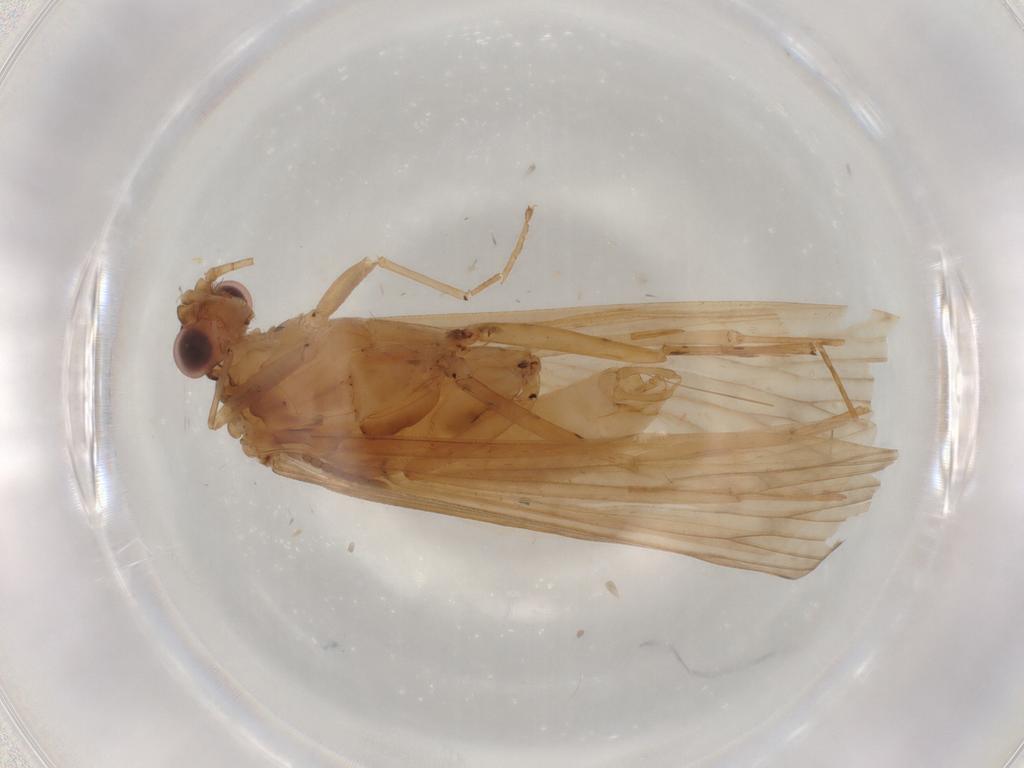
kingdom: Animalia
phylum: Arthropoda
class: Insecta
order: Trichoptera
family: Hydropsychidae
